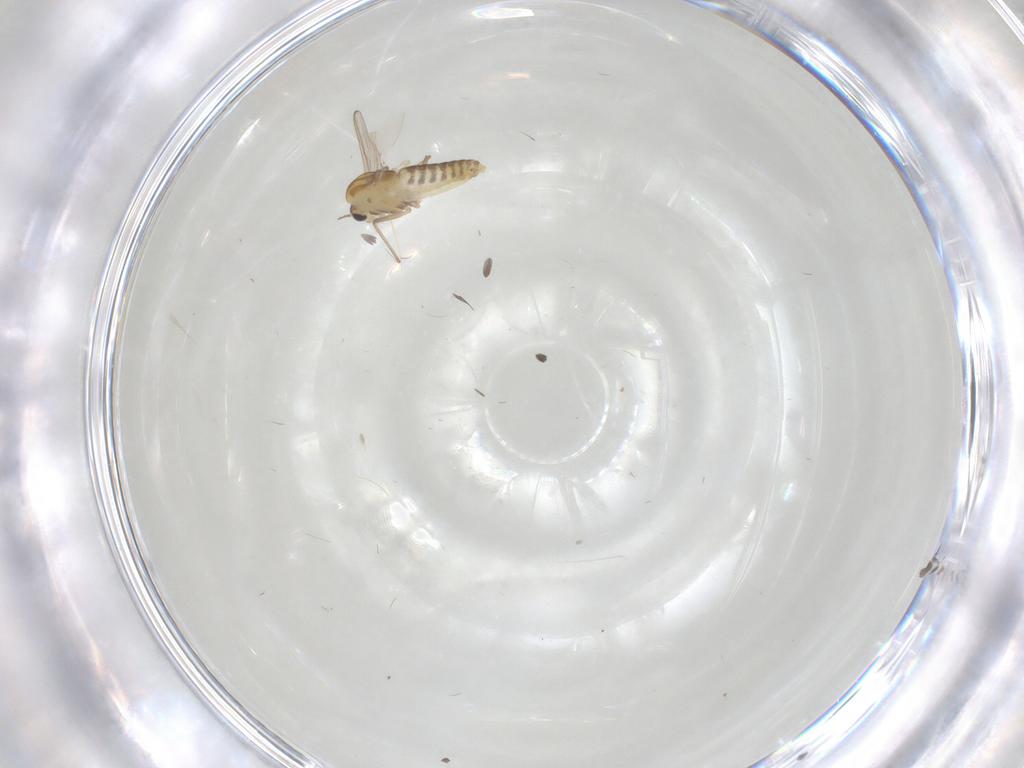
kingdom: Animalia
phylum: Arthropoda
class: Insecta
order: Diptera
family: Chironomidae
